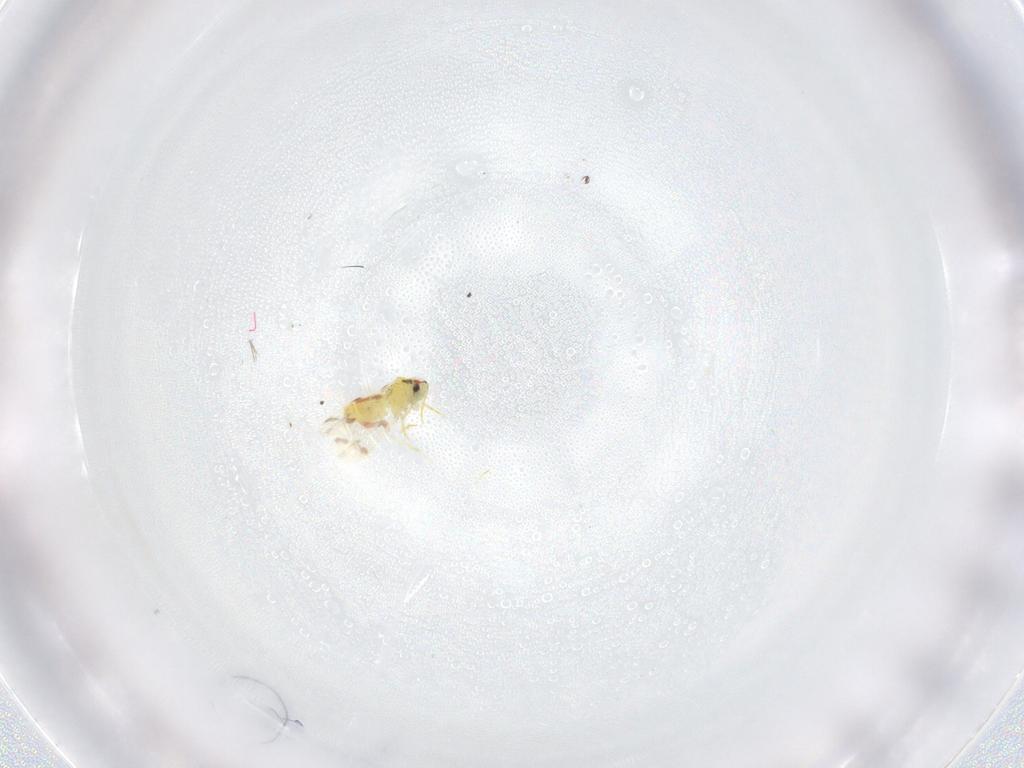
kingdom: Animalia
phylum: Arthropoda
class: Insecta
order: Hemiptera
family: Aleyrodidae
